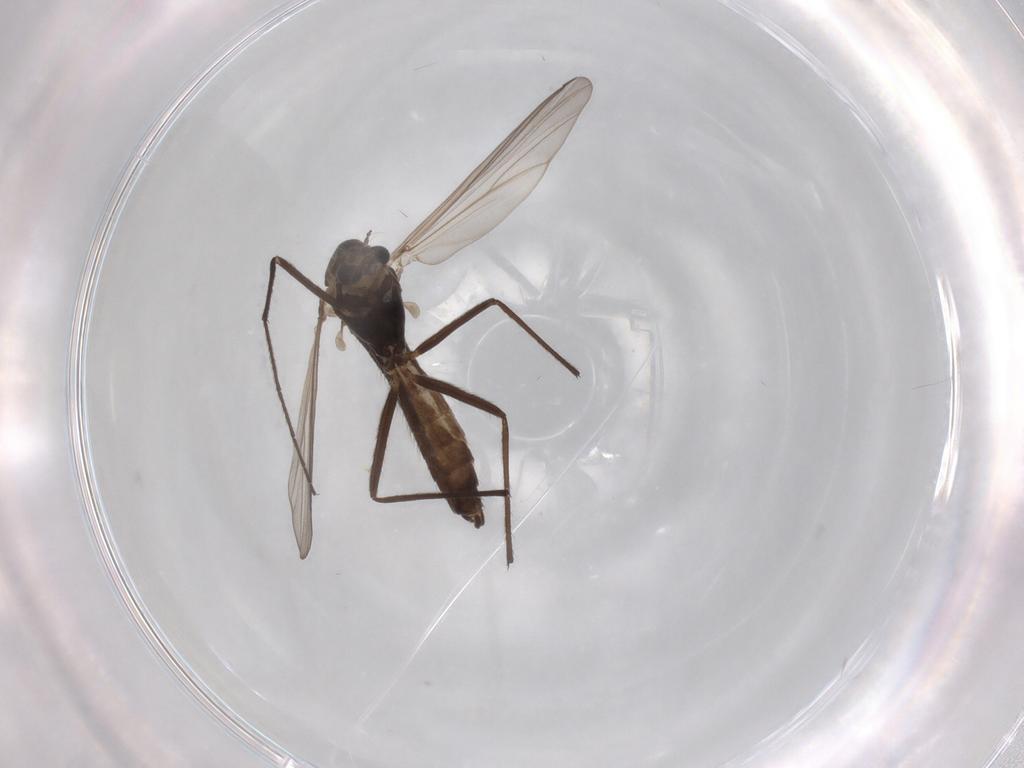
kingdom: Animalia
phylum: Arthropoda
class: Insecta
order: Diptera
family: Chironomidae
